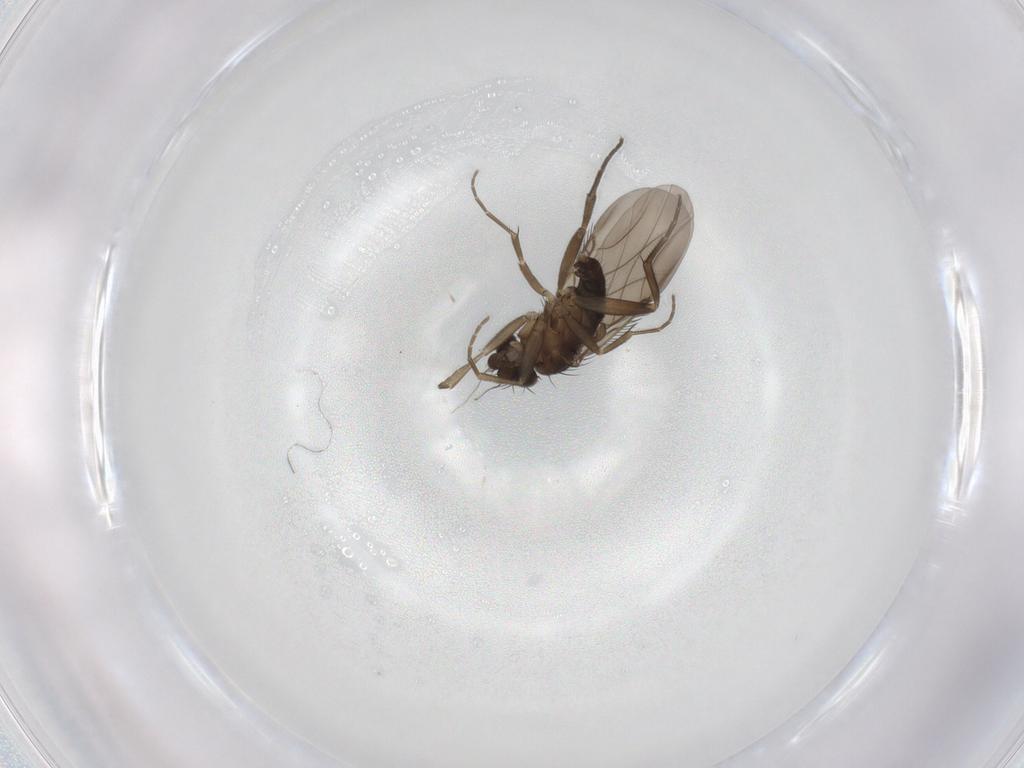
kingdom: Animalia
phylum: Arthropoda
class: Insecta
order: Diptera
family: Phoridae
